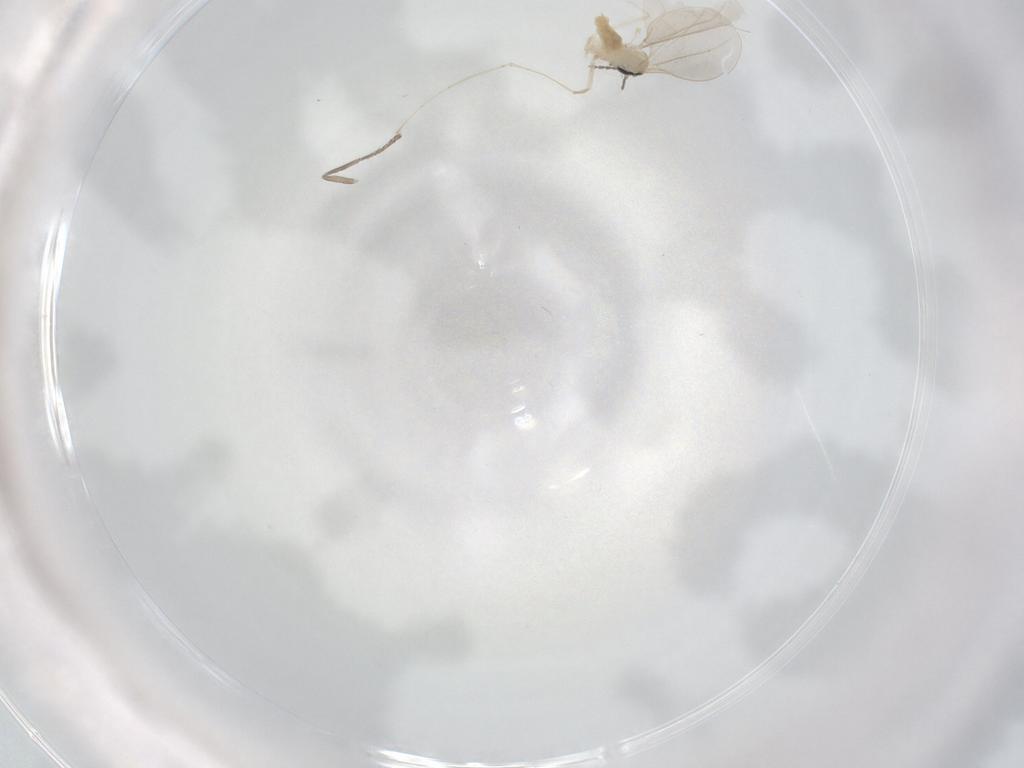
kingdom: Animalia
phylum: Arthropoda
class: Insecta
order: Diptera
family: Cecidomyiidae
